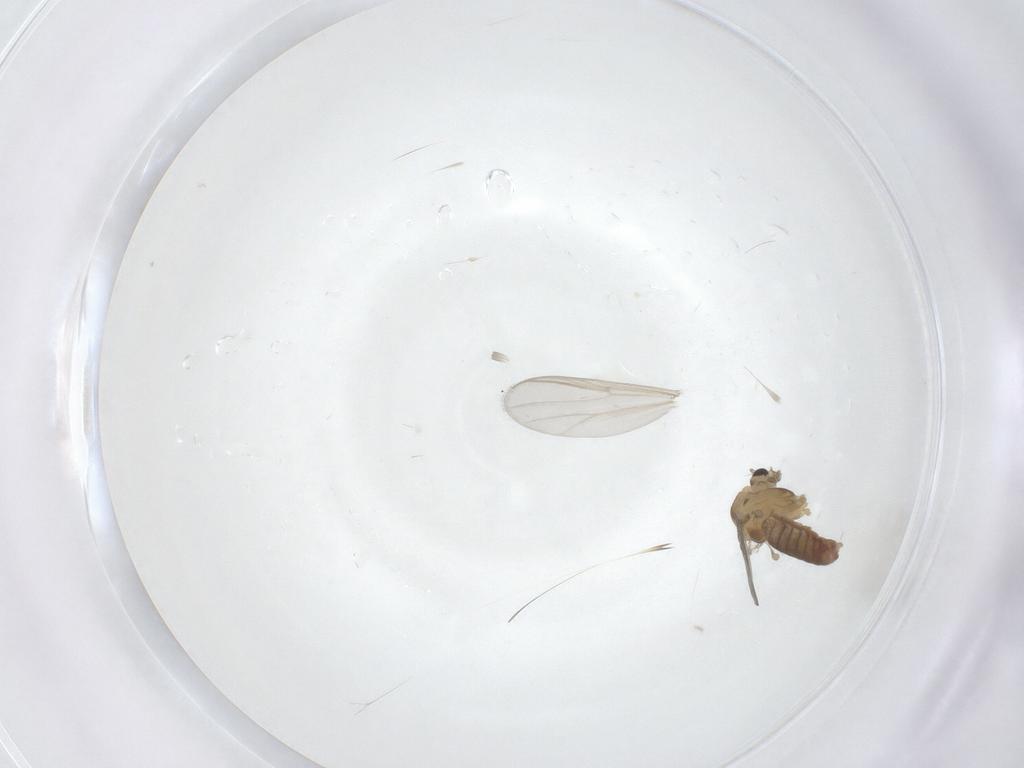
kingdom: Animalia
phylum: Arthropoda
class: Insecta
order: Diptera
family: Chironomidae
